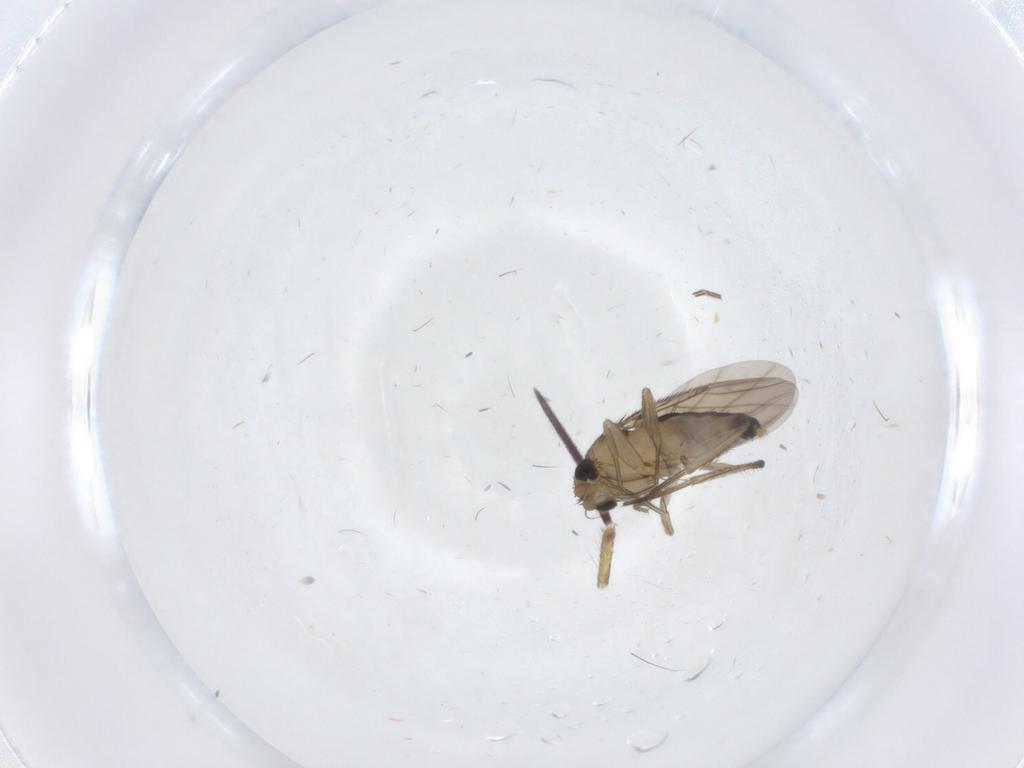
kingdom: Animalia
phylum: Arthropoda
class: Insecta
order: Diptera
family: Phoridae
